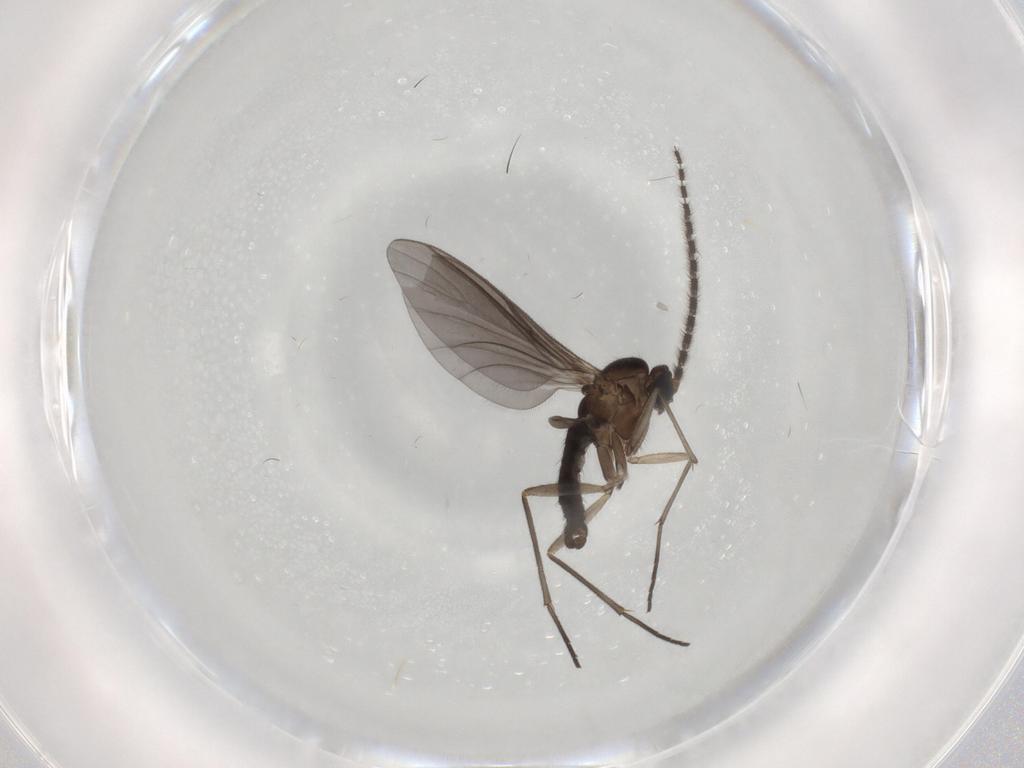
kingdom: Animalia
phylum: Arthropoda
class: Insecta
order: Diptera
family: Sciaridae
